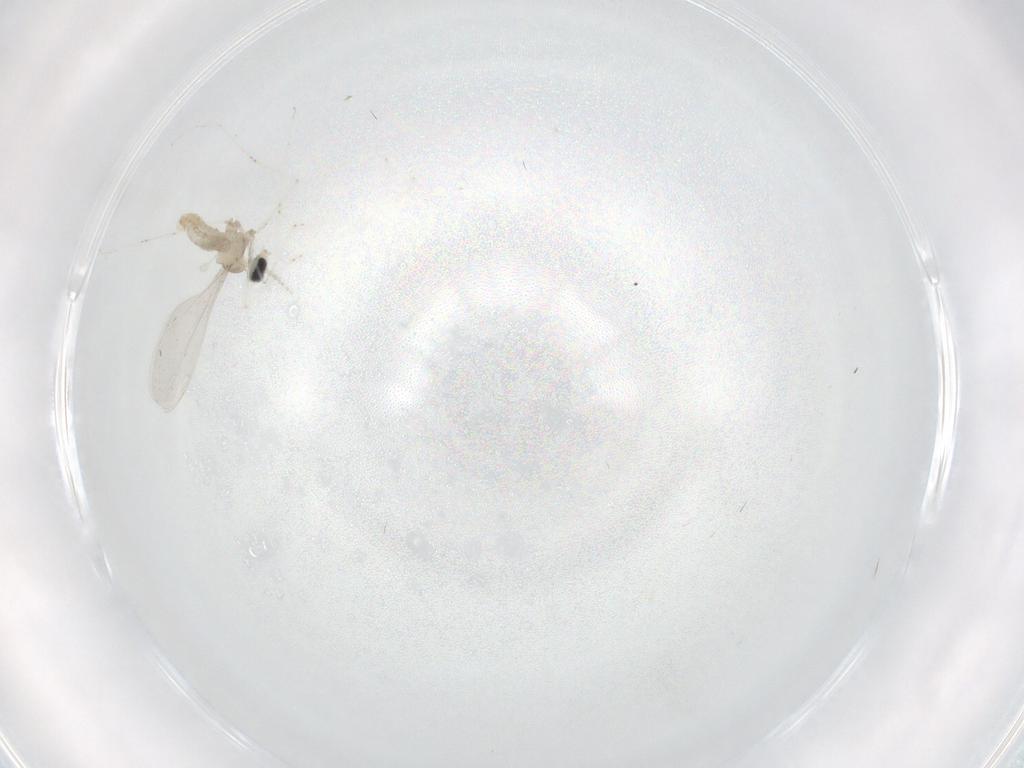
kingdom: Animalia
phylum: Arthropoda
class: Insecta
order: Diptera
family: Cecidomyiidae
